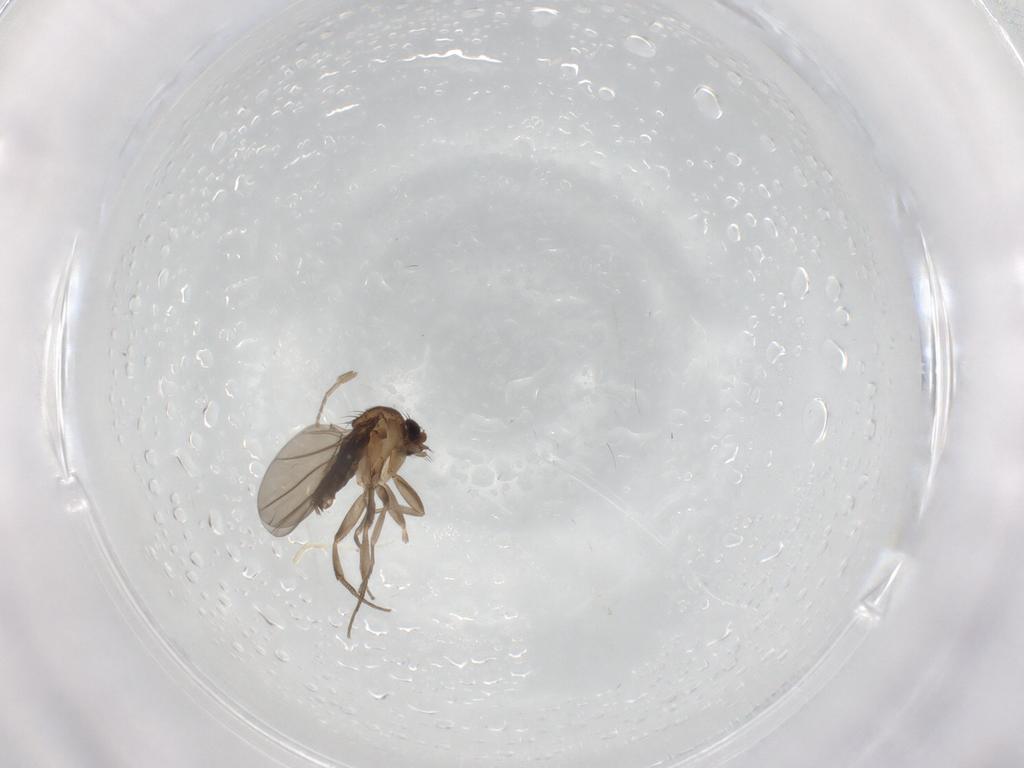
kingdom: Animalia
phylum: Arthropoda
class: Insecta
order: Diptera
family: Phoridae
